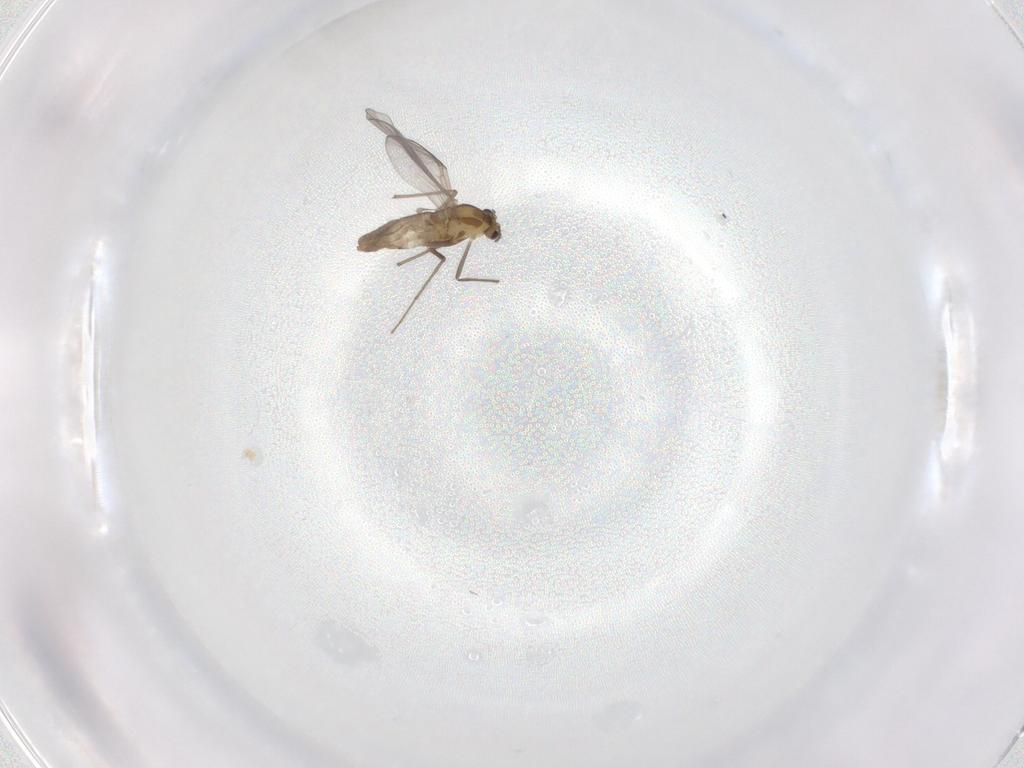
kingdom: Animalia
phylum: Arthropoda
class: Insecta
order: Diptera
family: Chironomidae
